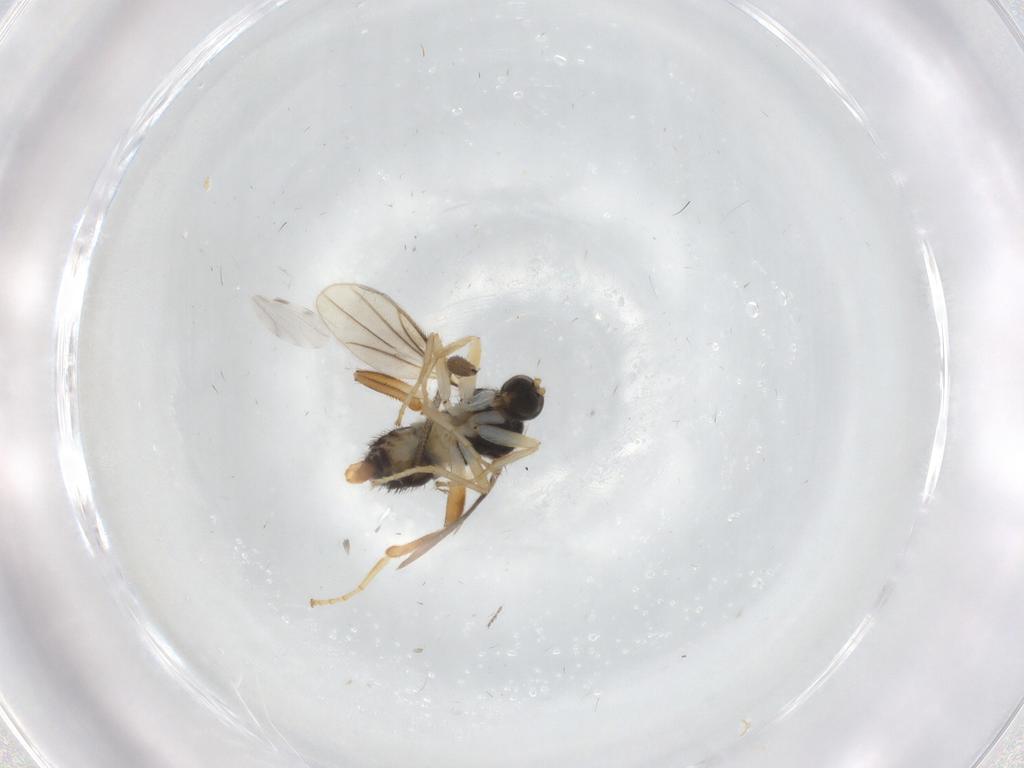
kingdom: Animalia
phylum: Arthropoda
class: Insecta
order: Diptera
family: Hybotidae
